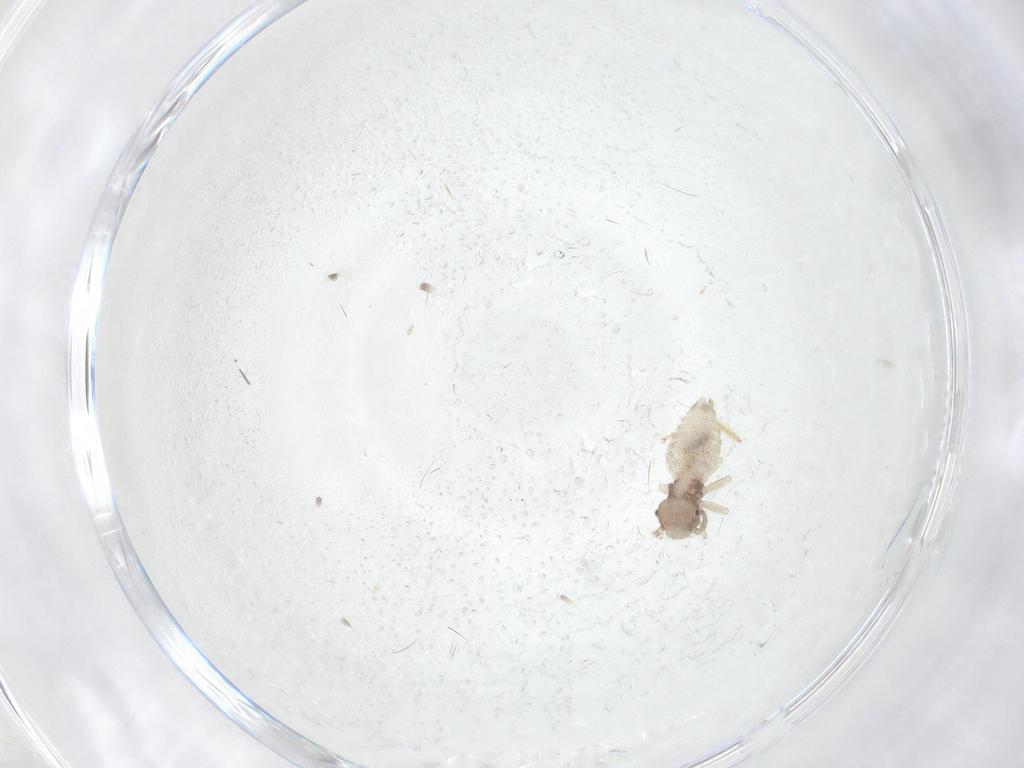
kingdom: Animalia
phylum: Arthropoda
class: Insecta
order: Psocodea
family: Caeciliusidae
